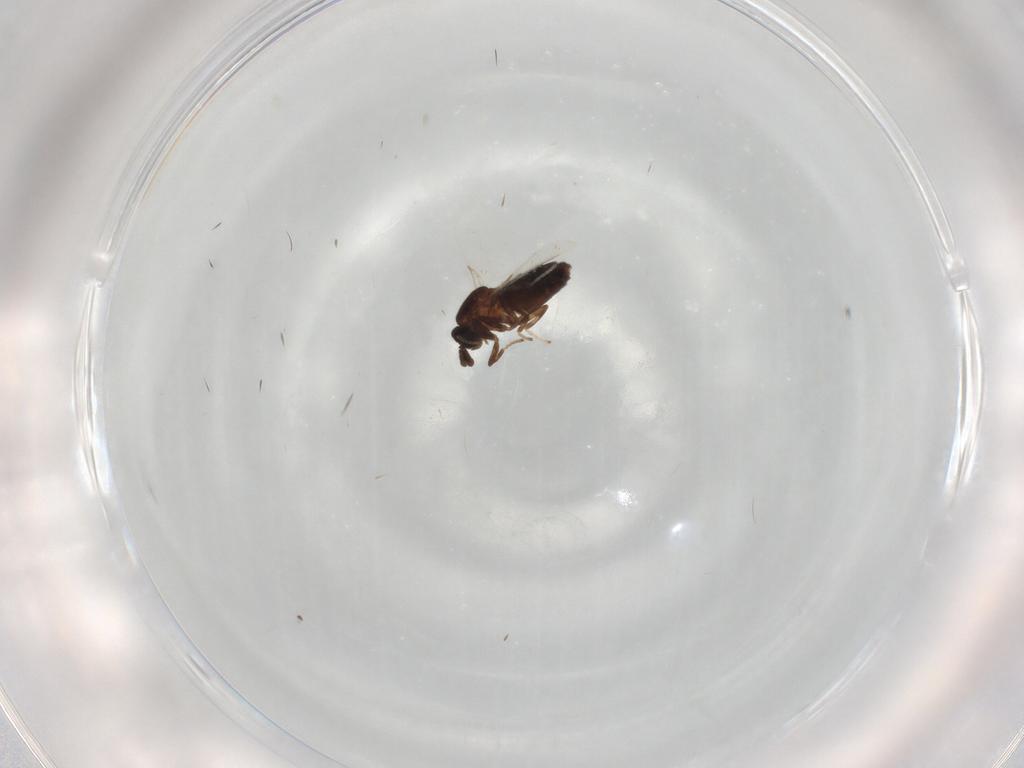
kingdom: Animalia
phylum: Arthropoda
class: Insecta
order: Diptera
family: Scatopsidae
